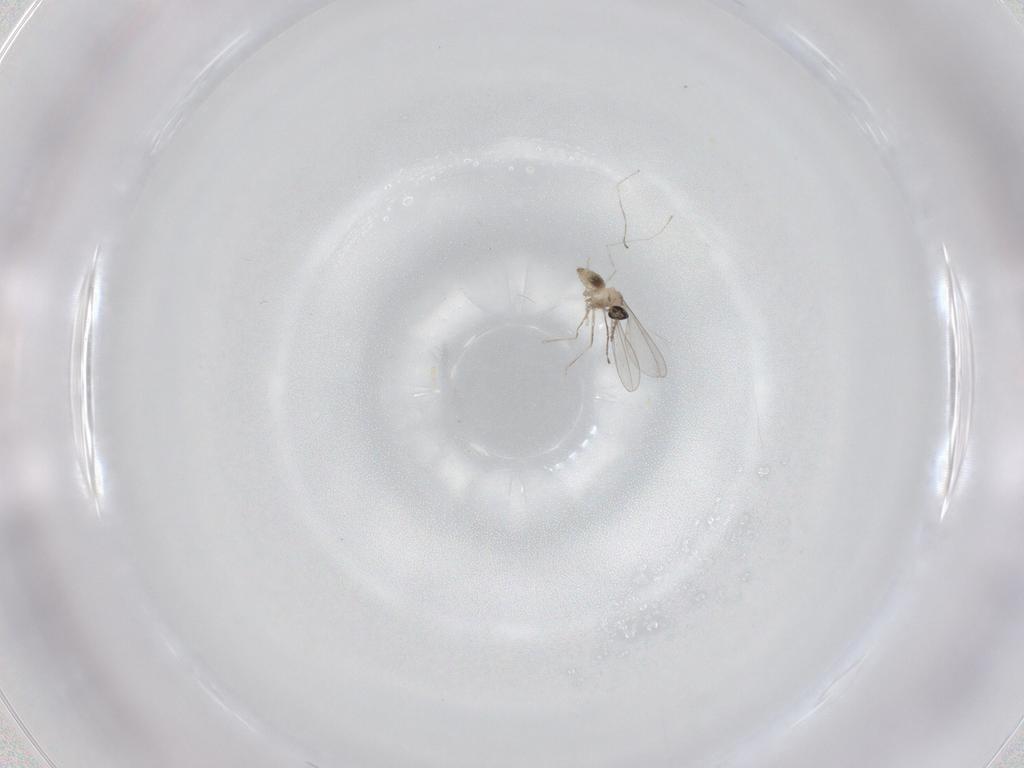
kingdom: Animalia
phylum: Arthropoda
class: Insecta
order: Diptera
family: Cecidomyiidae
